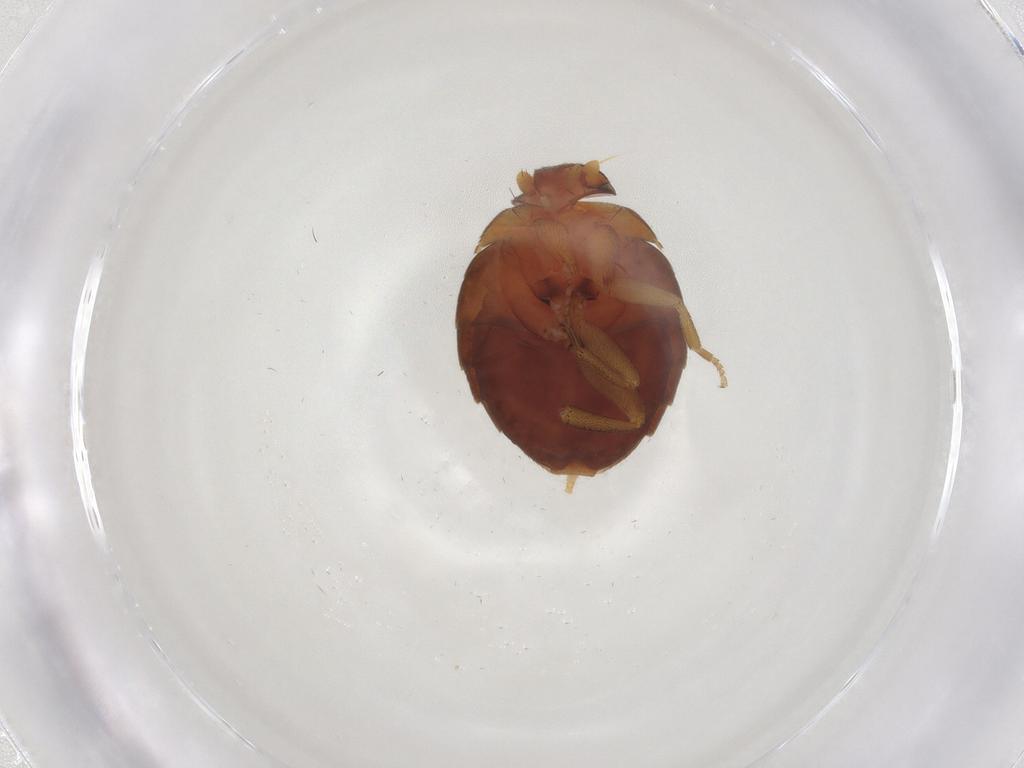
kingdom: Animalia
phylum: Arthropoda
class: Insecta
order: Diptera
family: Phoridae
